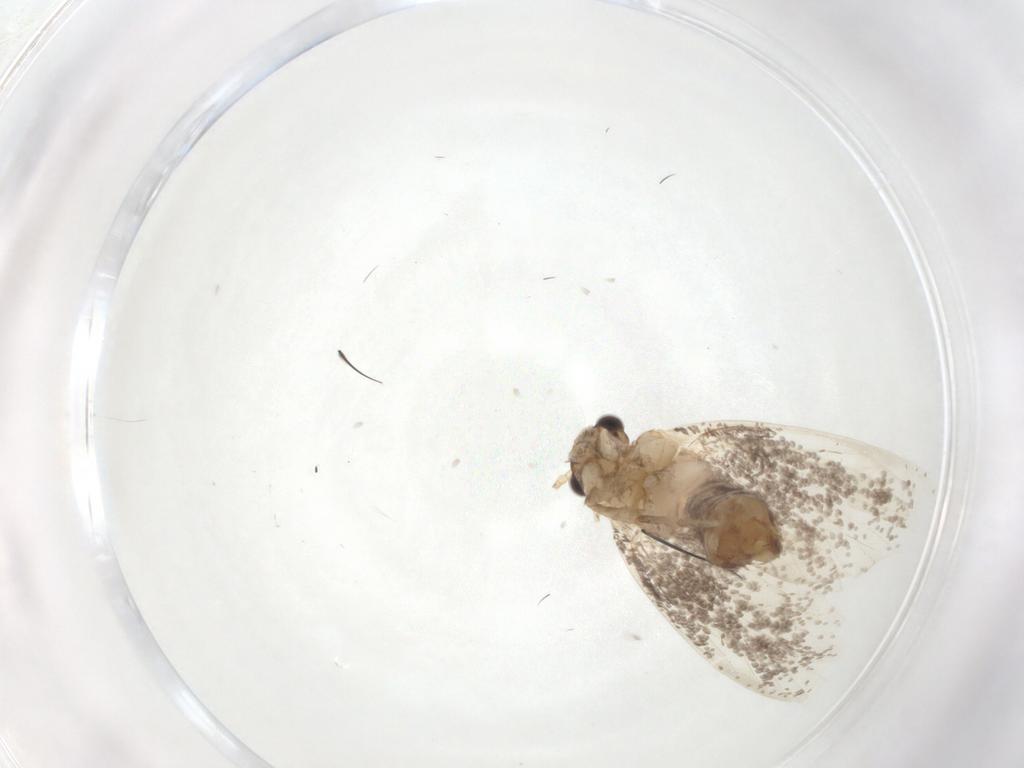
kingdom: Animalia
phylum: Arthropoda
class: Insecta
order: Lepidoptera
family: Dryadaulidae
